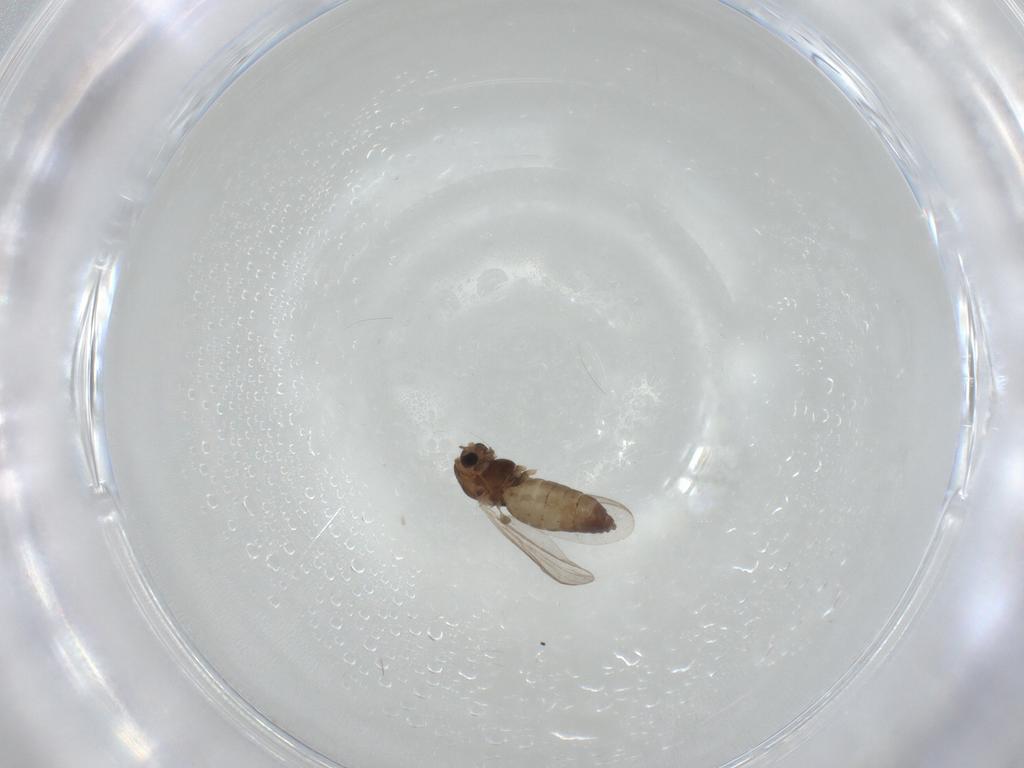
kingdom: Animalia
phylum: Arthropoda
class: Insecta
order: Diptera
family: Chironomidae
